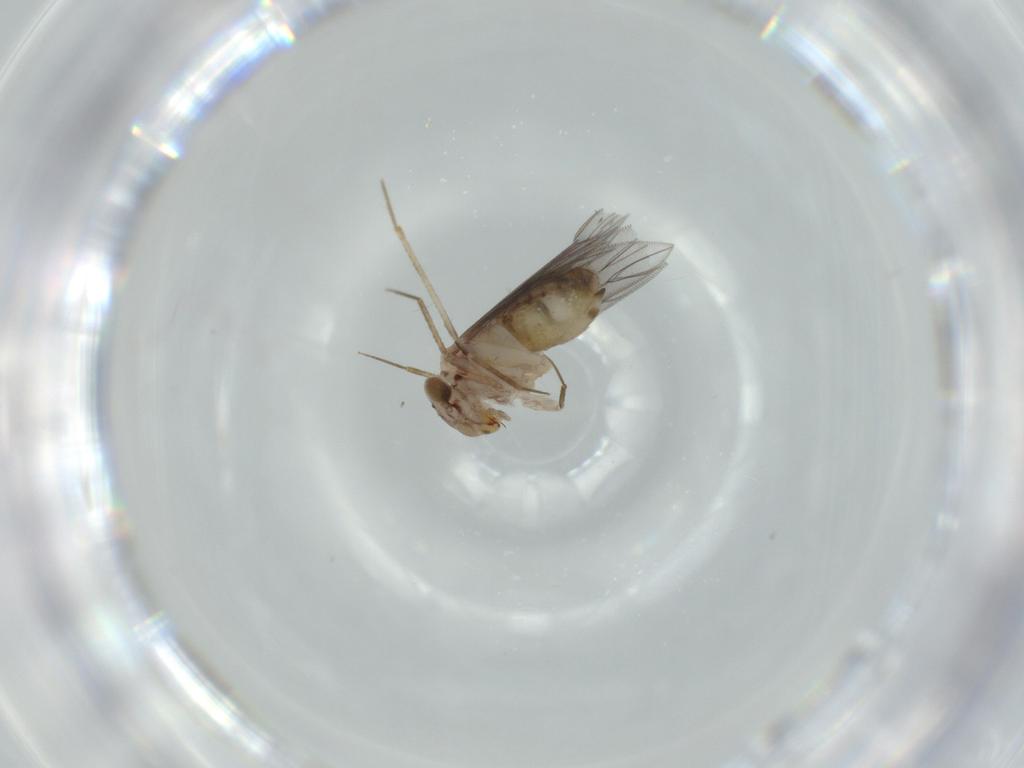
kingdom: Animalia
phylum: Arthropoda
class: Insecta
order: Psocodea
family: Lepidopsocidae
